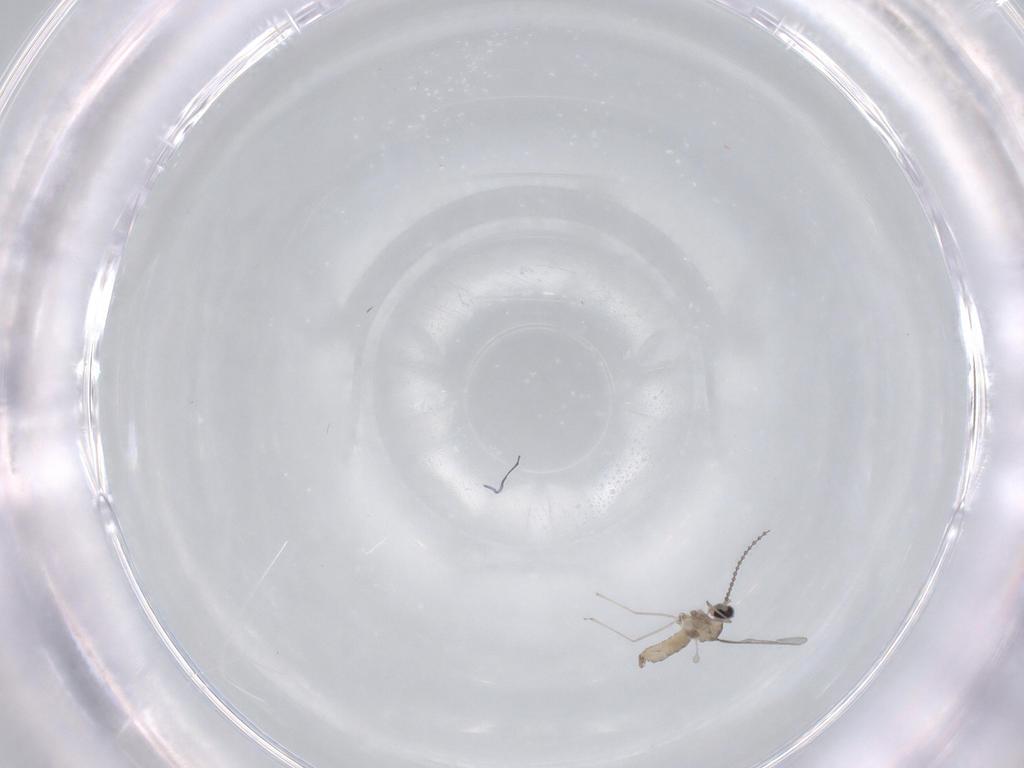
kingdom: Animalia
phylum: Arthropoda
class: Insecta
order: Diptera
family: Cecidomyiidae
